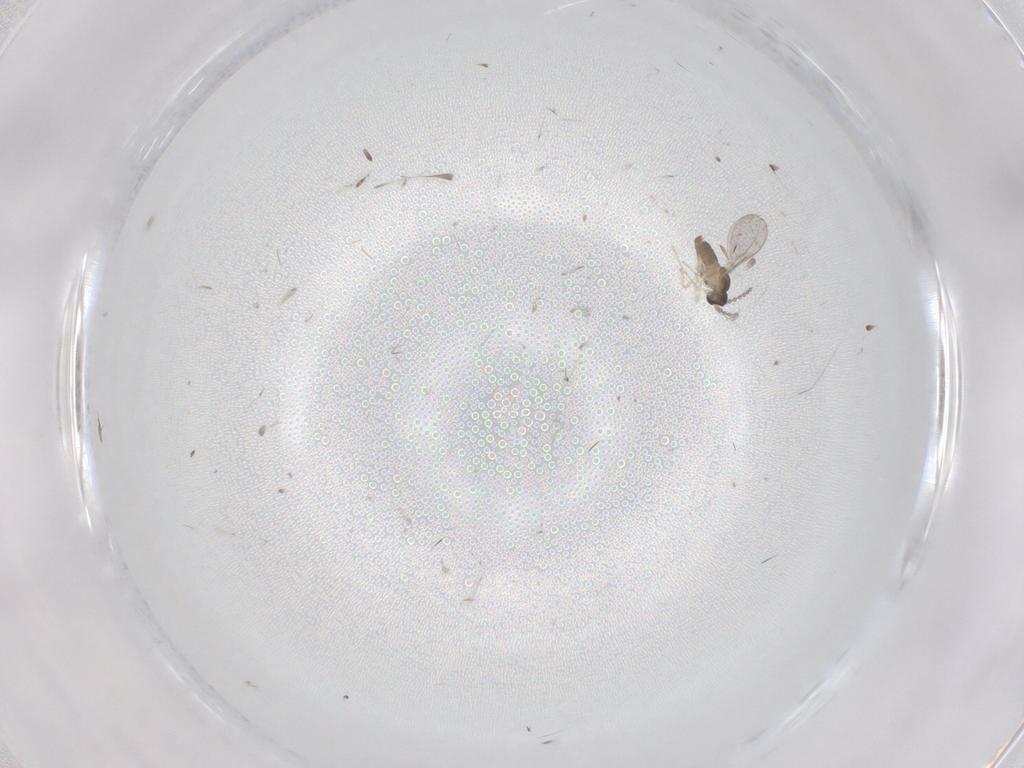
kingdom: Animalia
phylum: Arthropoda
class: Insecta
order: Diptera
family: Cecidomyiidae
